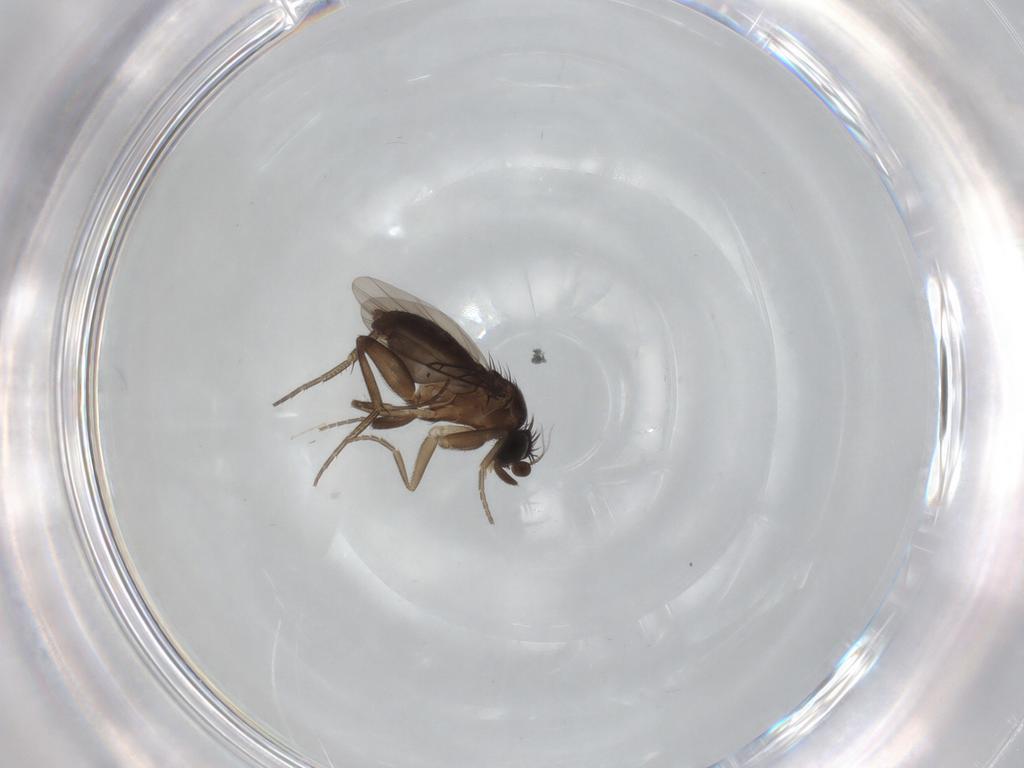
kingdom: Animalia
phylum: Arthropoda
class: Insecta
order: Diptera
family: Phoridae
